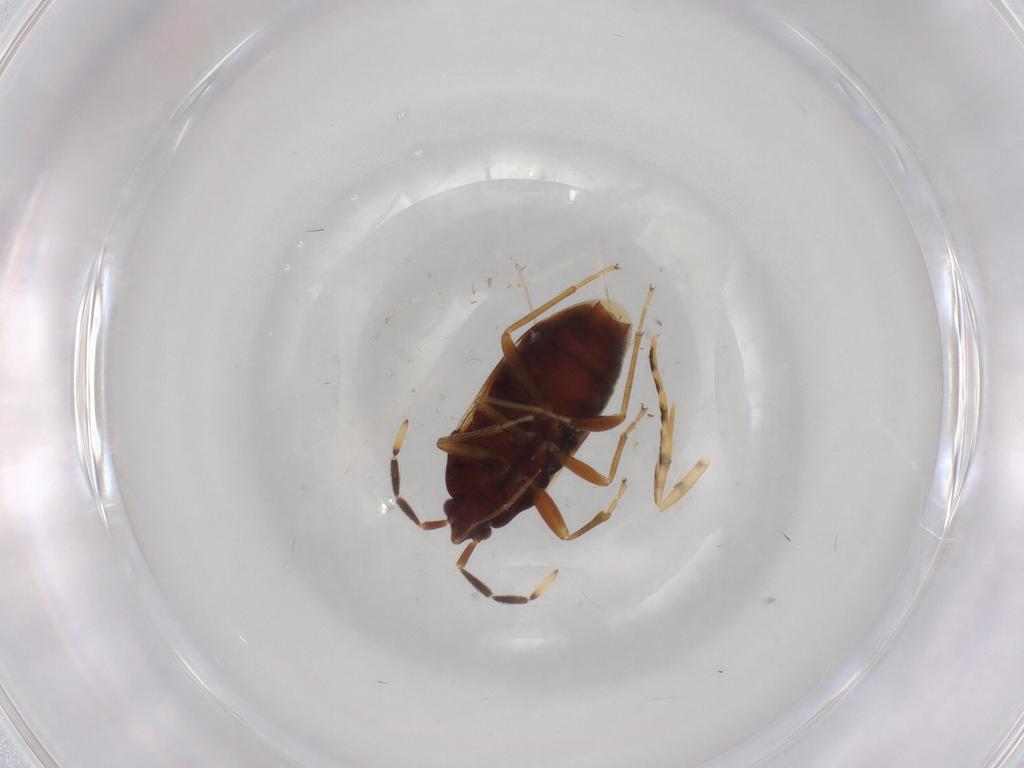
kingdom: Animalia
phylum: Arthropoda
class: Insecta
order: Hemiptera
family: Rhyparochromidae
